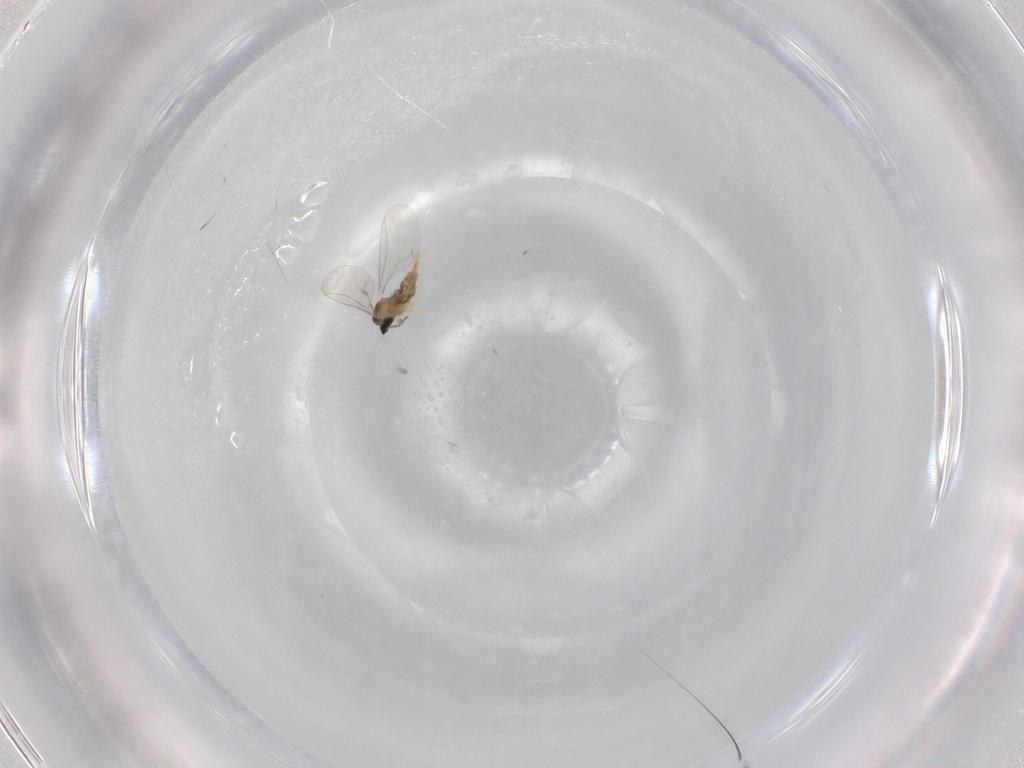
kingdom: Animalia
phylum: Arthropoda
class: Insecta
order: Diptera
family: Cecidomyiidae
